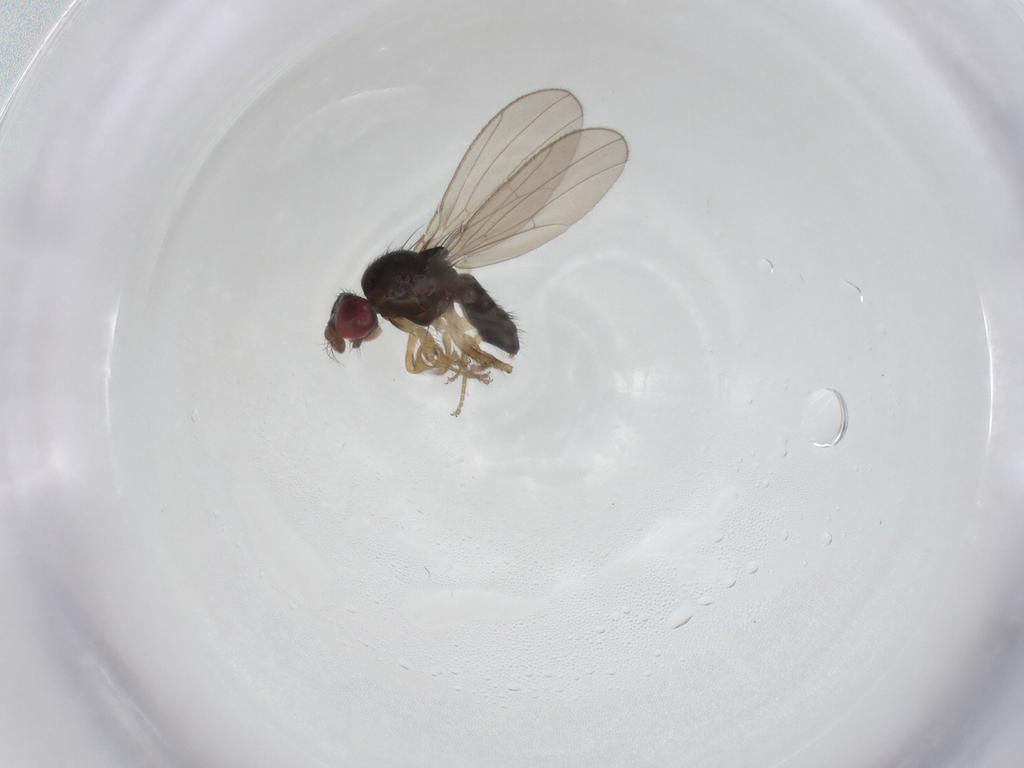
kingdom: Animalia
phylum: Arthropoda
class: Insecta
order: Diptera
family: Drosophilidae
